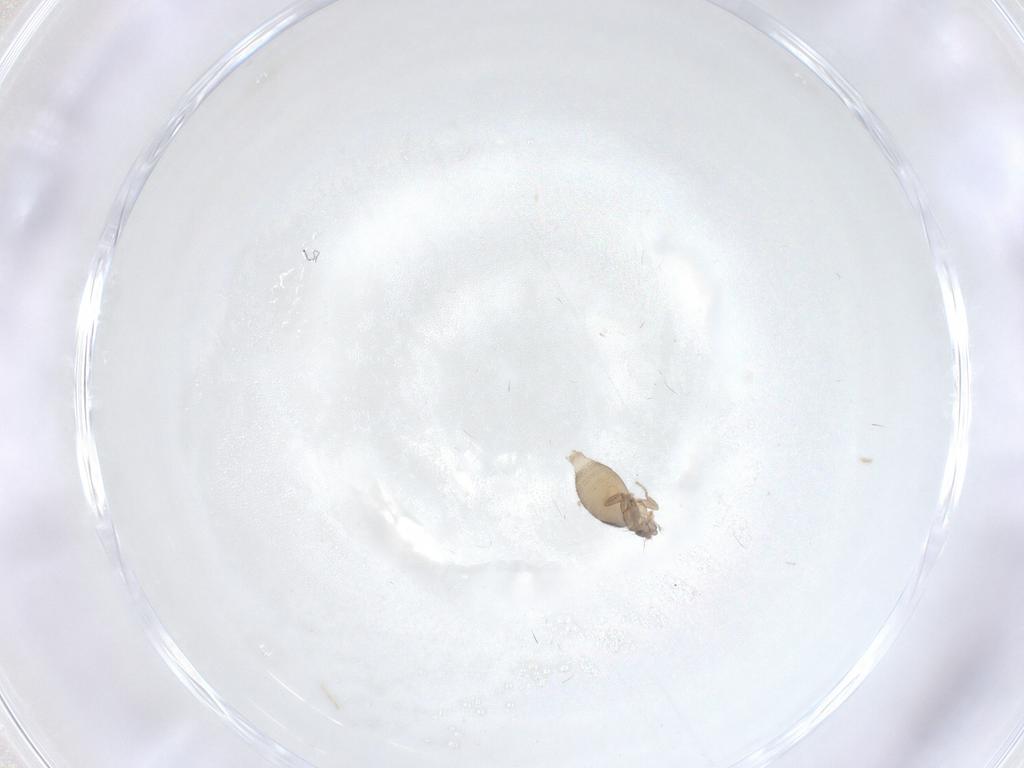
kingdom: Animalia
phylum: Arthropoda
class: Insecta
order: Diptera
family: Phoridae
